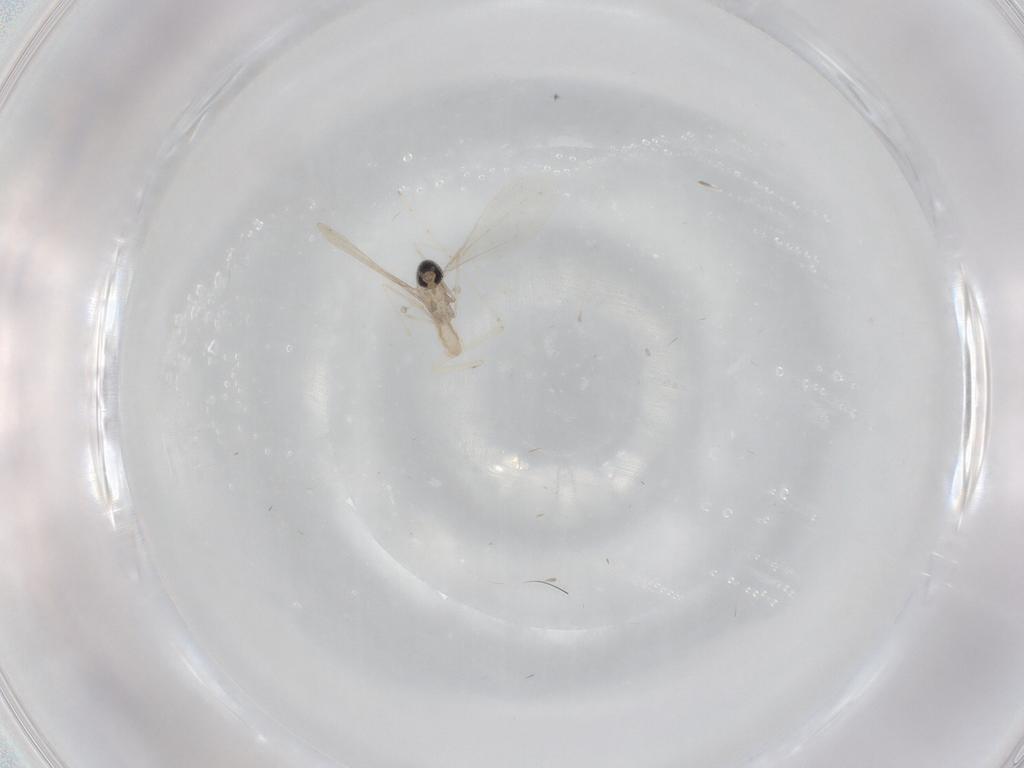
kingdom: Animalia
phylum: Arthropoda
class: Insecta
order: Diptera
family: Cecidomyiidae
